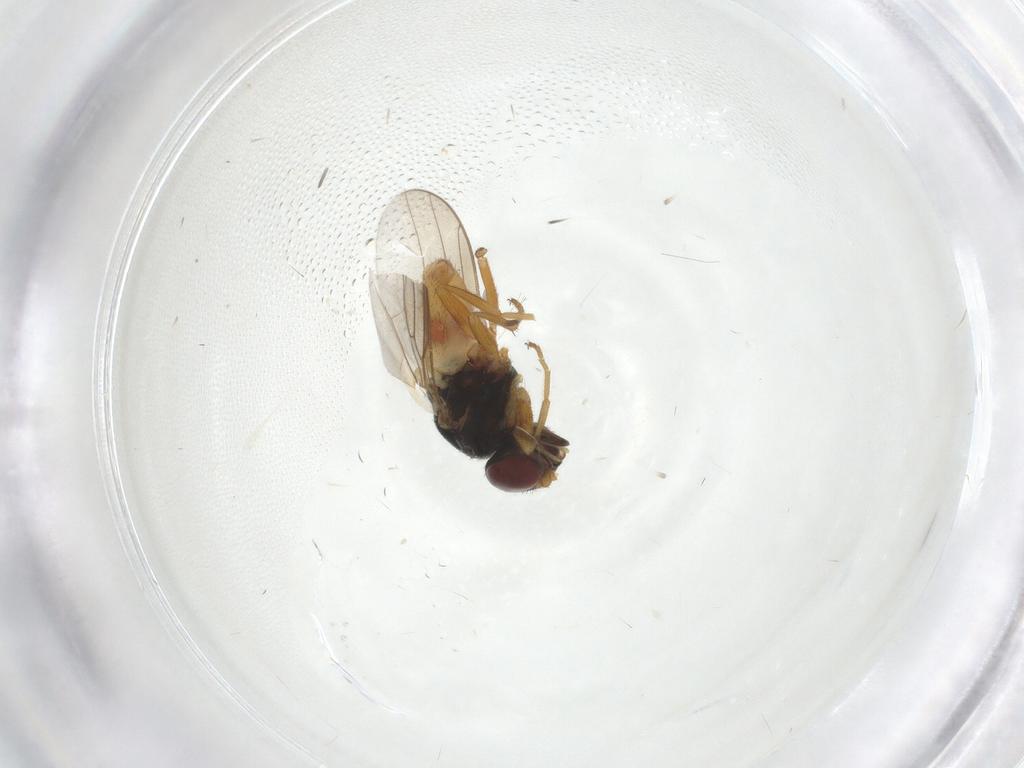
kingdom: Animalia
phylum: Arthropoda
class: Insecta
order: Diptera
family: Chloropidae
